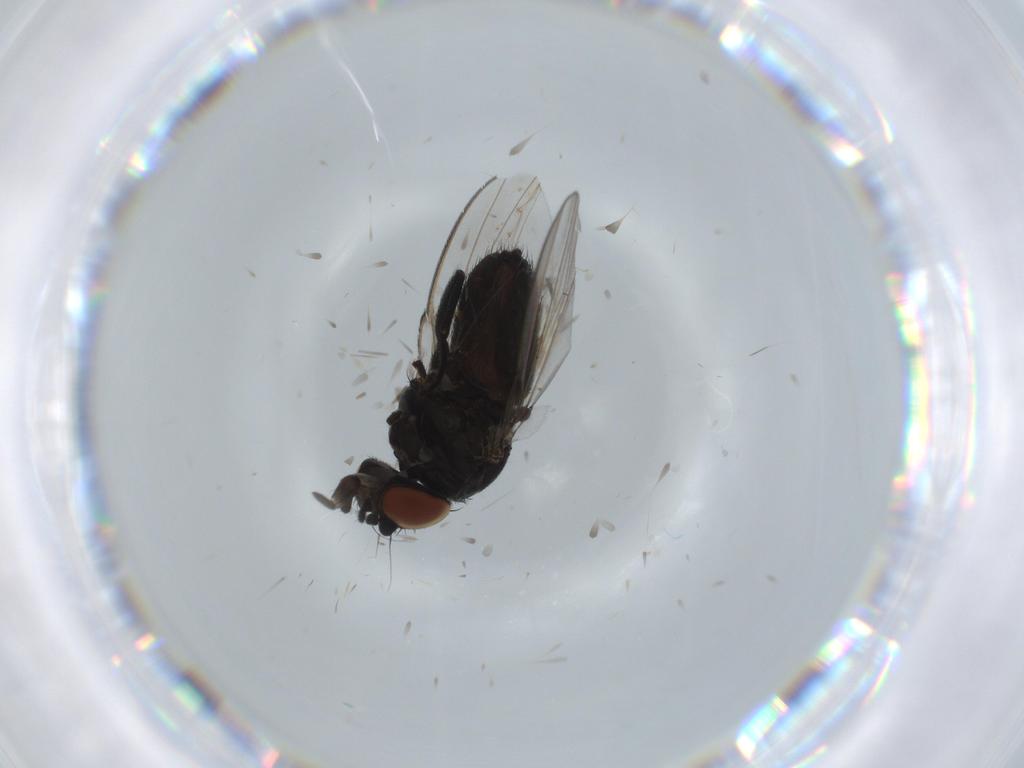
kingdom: Animalia
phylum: Arthropoda
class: Insecta
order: Diptera
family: Milichiidae
